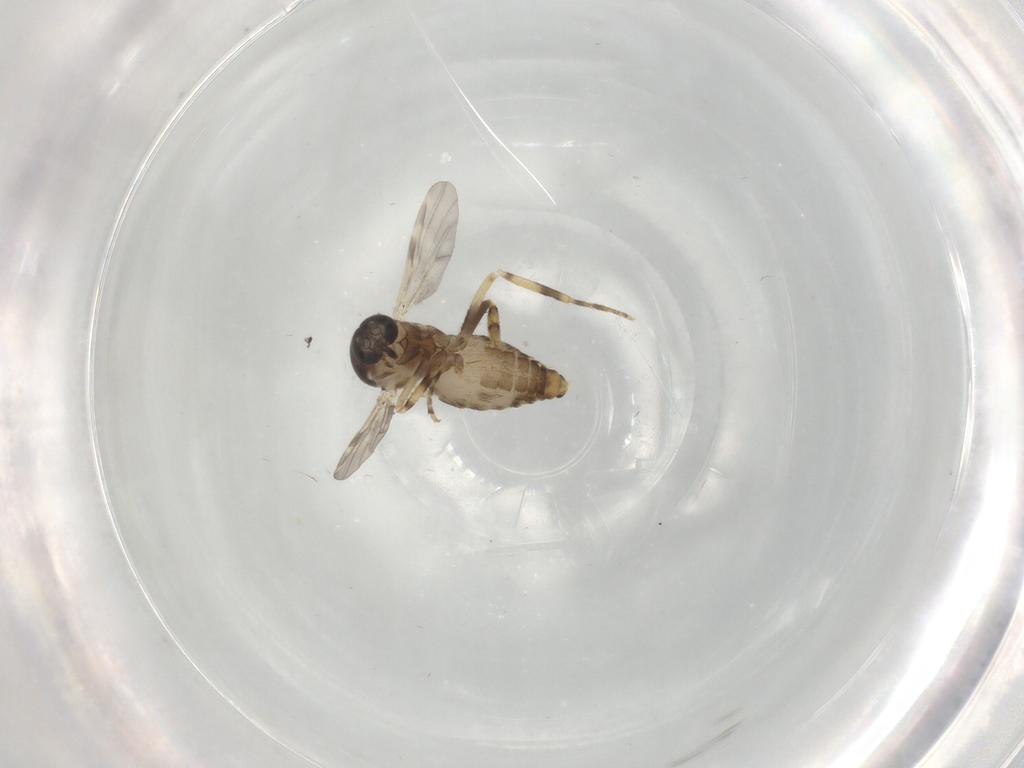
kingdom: Animalia
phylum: Arthropoda
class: Insecta
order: Diptera
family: Ceratopogonidae
